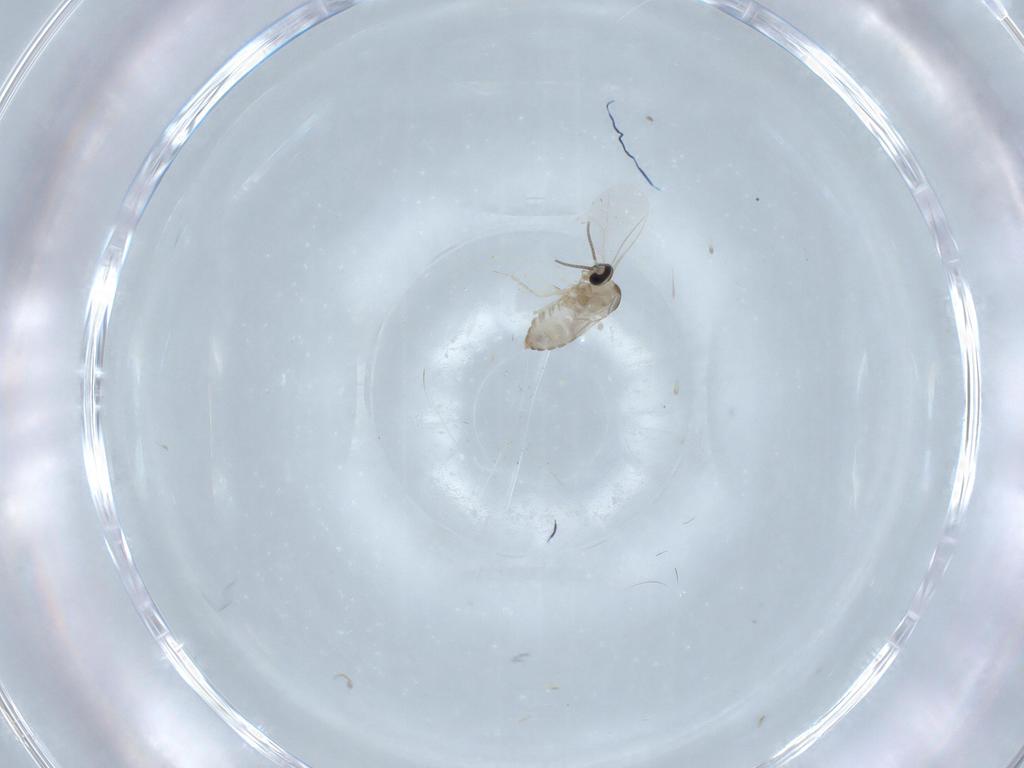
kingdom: Animalia
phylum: Arthropoda
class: Insecta
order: Diptera
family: Cecidomyiidae
